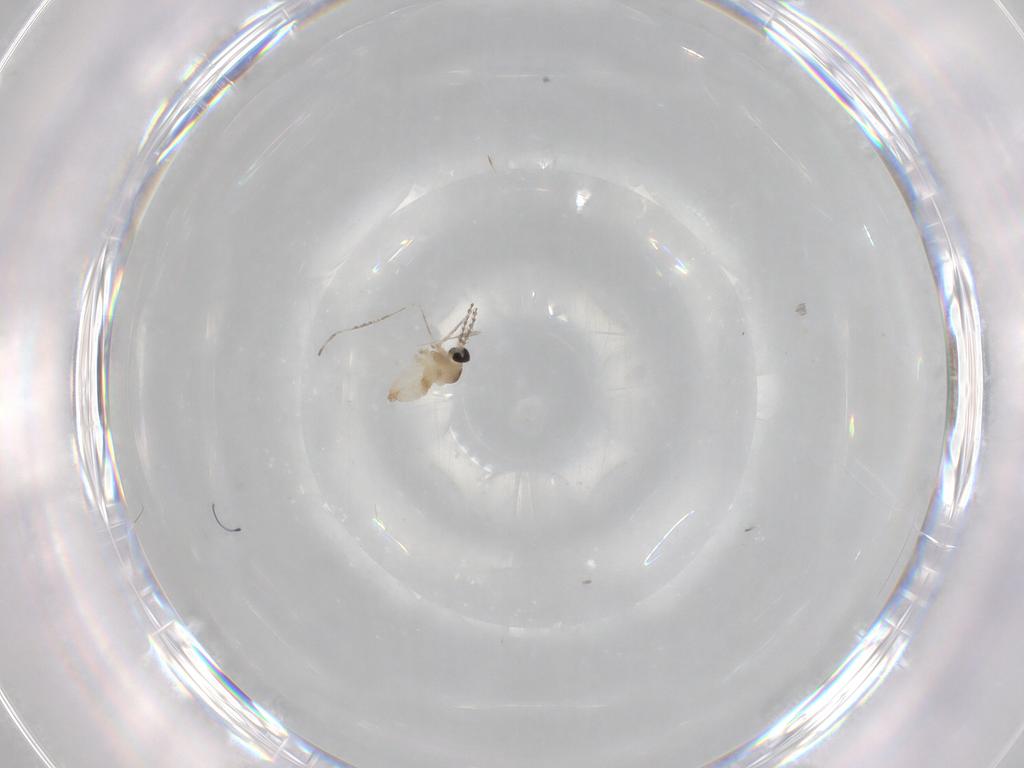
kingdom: Animalia
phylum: Arthropoda
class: Insecta
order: Diptera
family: Cecidomyiidae
